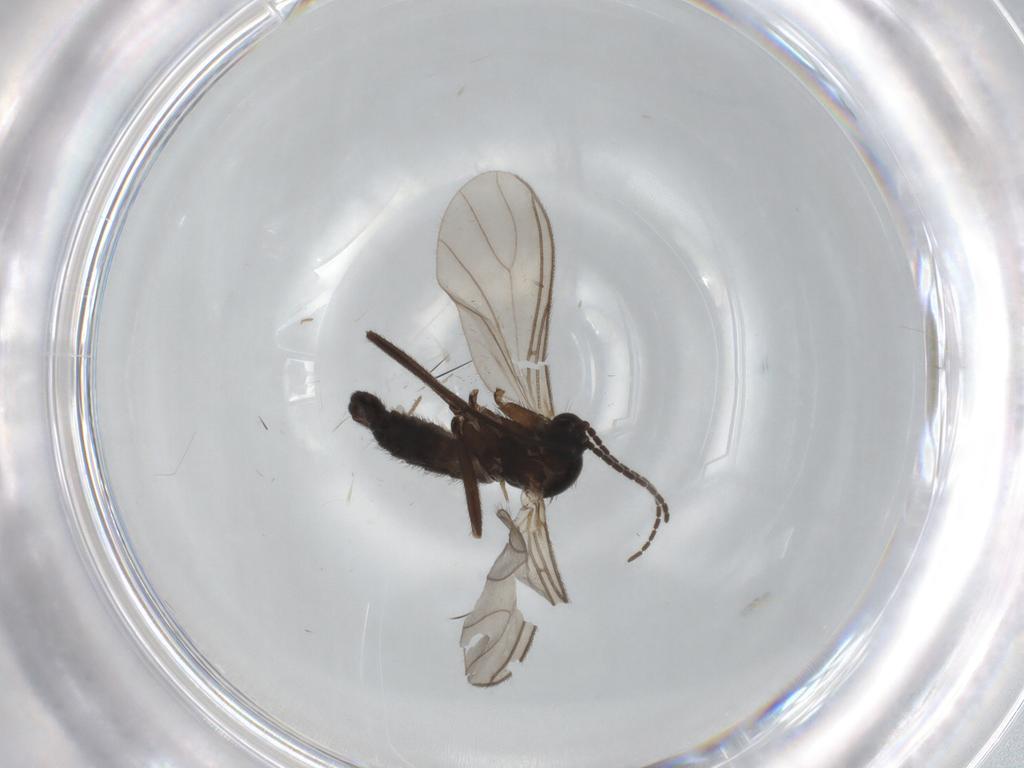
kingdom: Animalia
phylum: Arthropoda
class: Insecta
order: Diptera
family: Sciaridae
